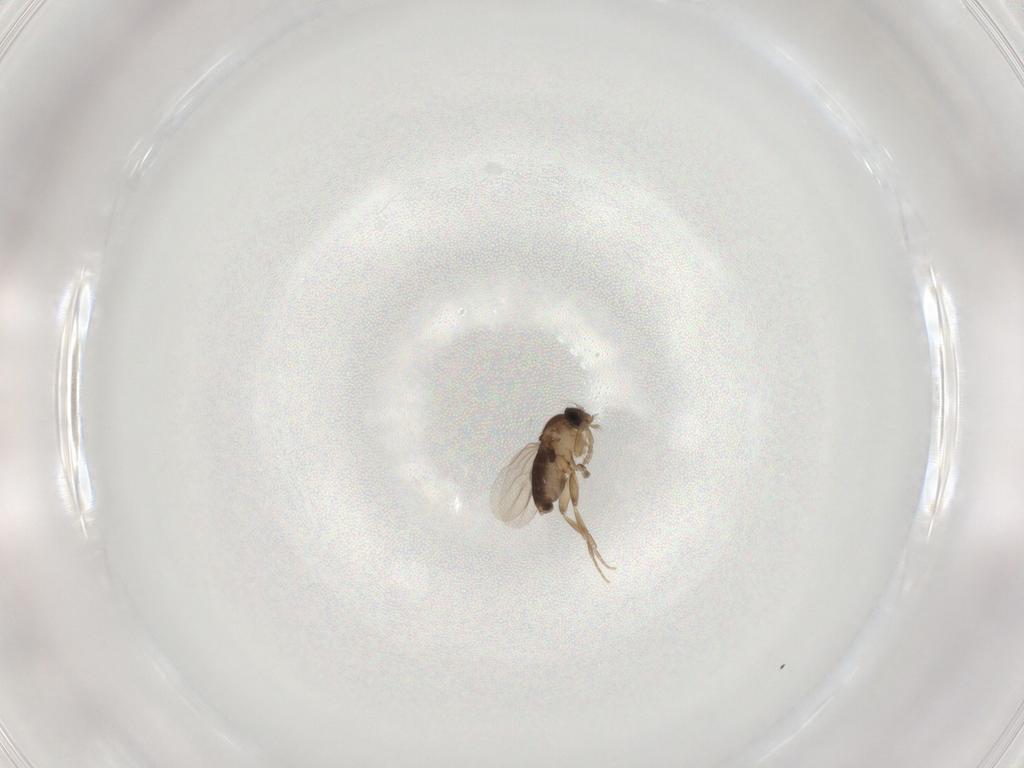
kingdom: Animalia
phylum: Arthropoda
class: Insecta
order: Diptera
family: Phoridae
